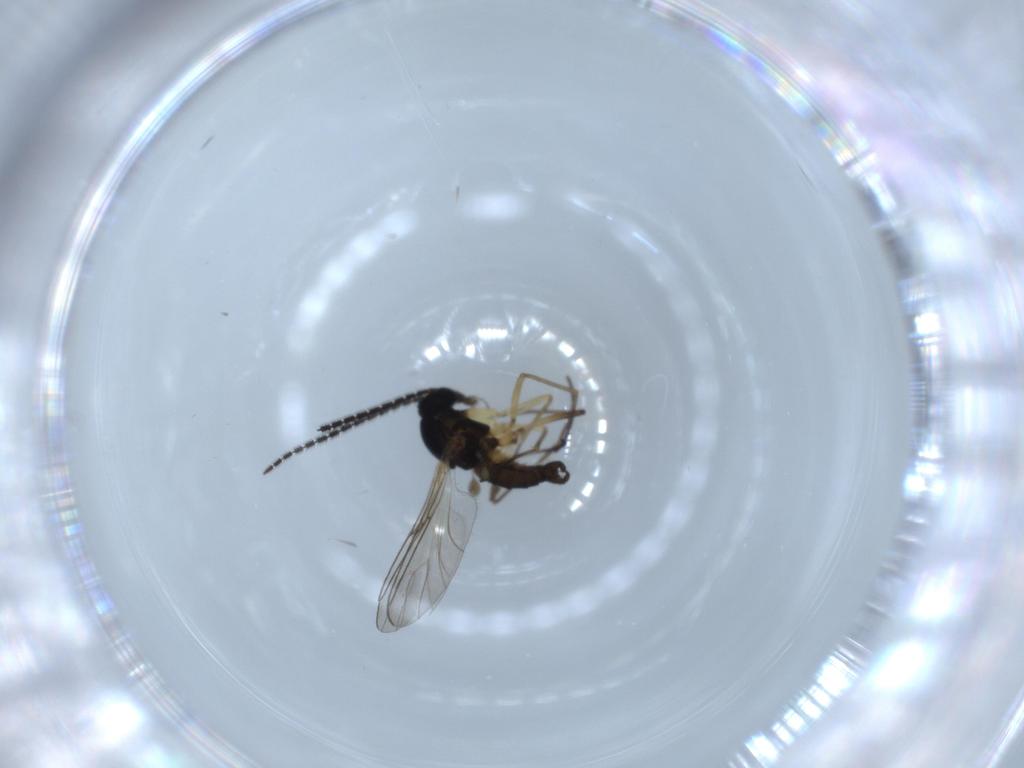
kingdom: Animalia
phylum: Arthropoda
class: Insecta
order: Diptera
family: Sciaridae
